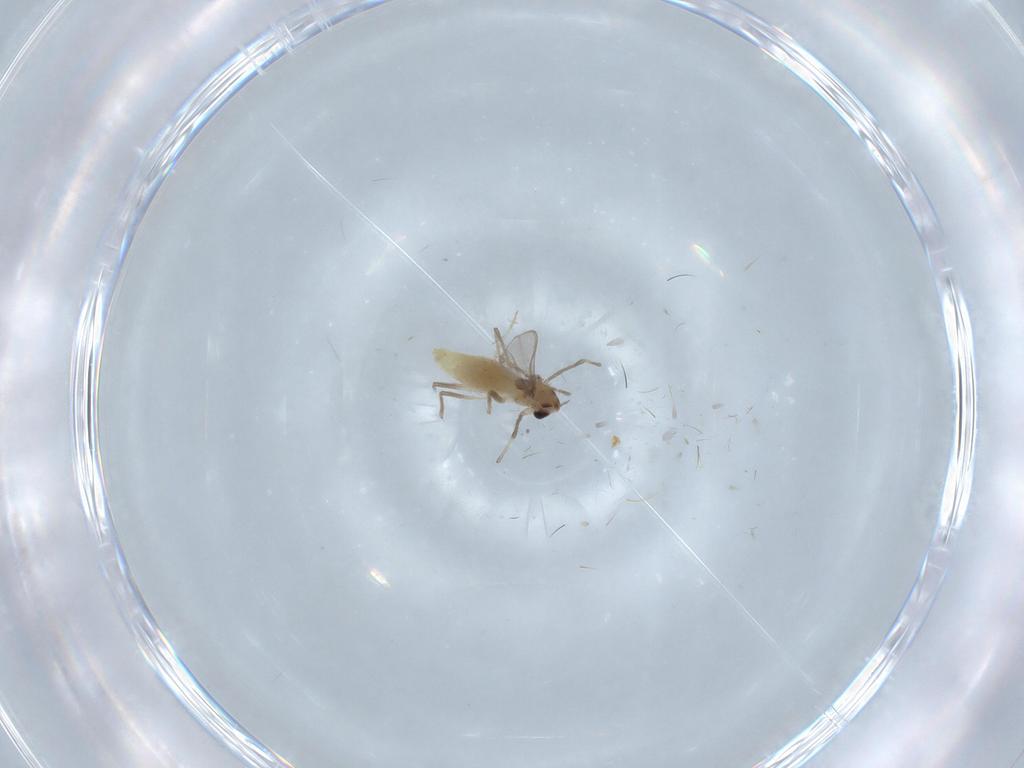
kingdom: Animalia
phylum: Arthropoda
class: Insecta
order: Diptera
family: Chironomidae
